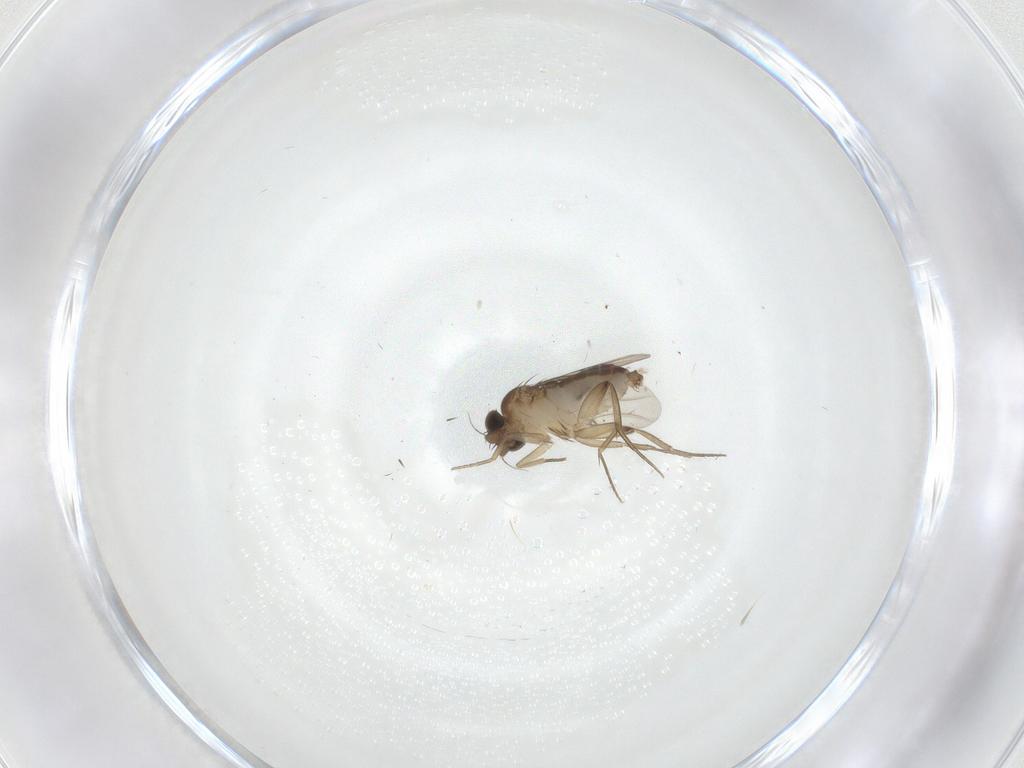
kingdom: Animalia
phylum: Arthropoda
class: Insecta
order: Diptera
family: Phoridae
